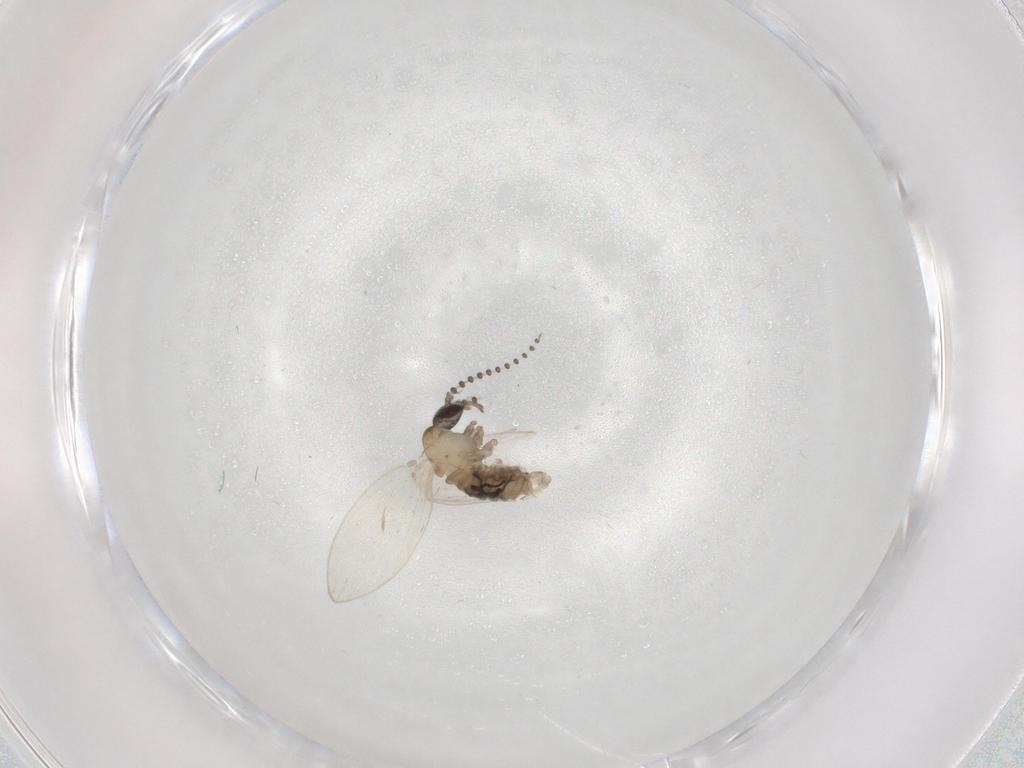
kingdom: Animalia
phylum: Arthropoda
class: Insecta
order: Diptera
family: Psychodidae
